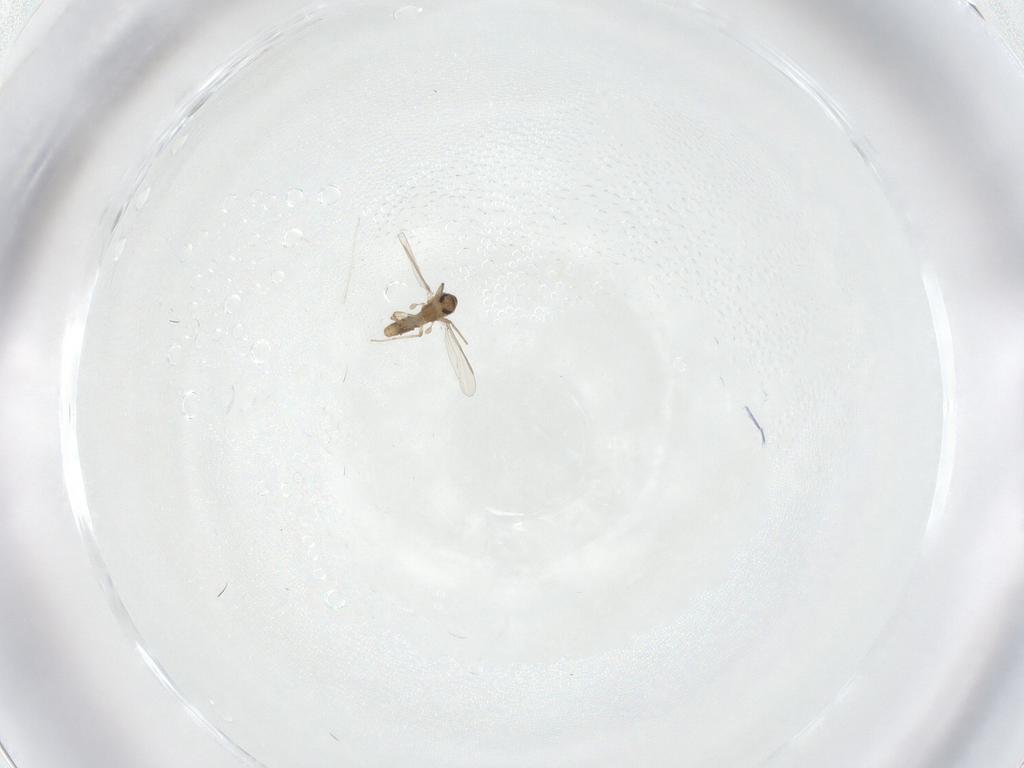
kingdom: Animalia
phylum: Arthropoda
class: Insecta
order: Diptera
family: Chironomidae
